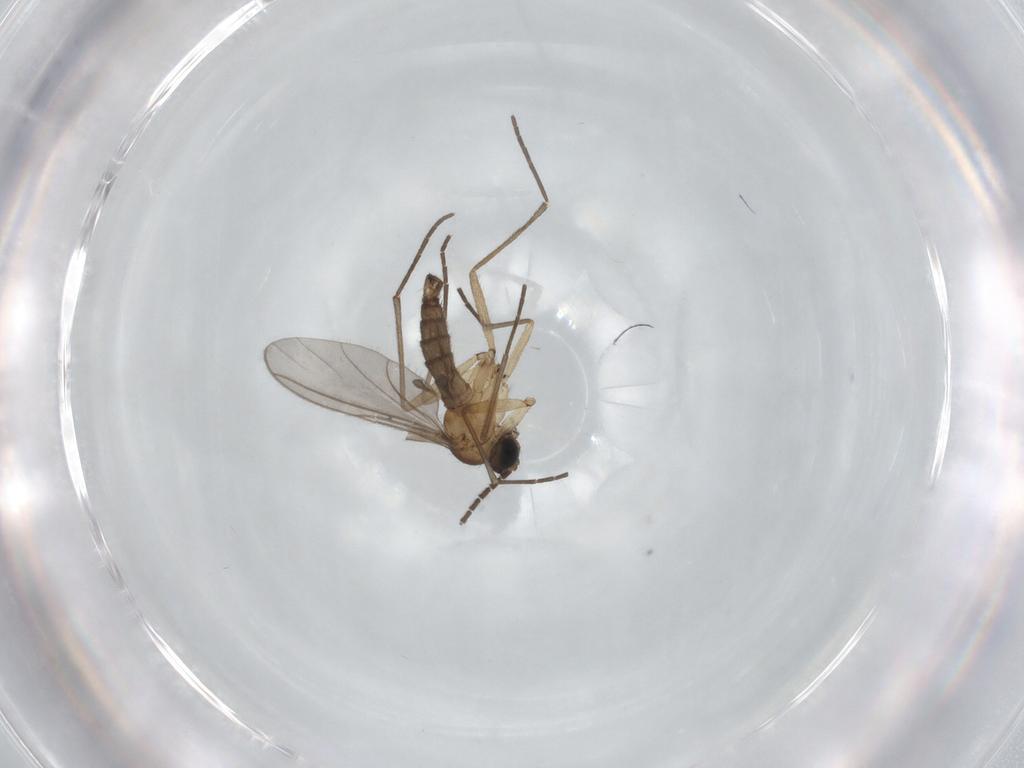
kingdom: Animalia
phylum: Arthropoda
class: Insecta
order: Diptera
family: Sciaridae
